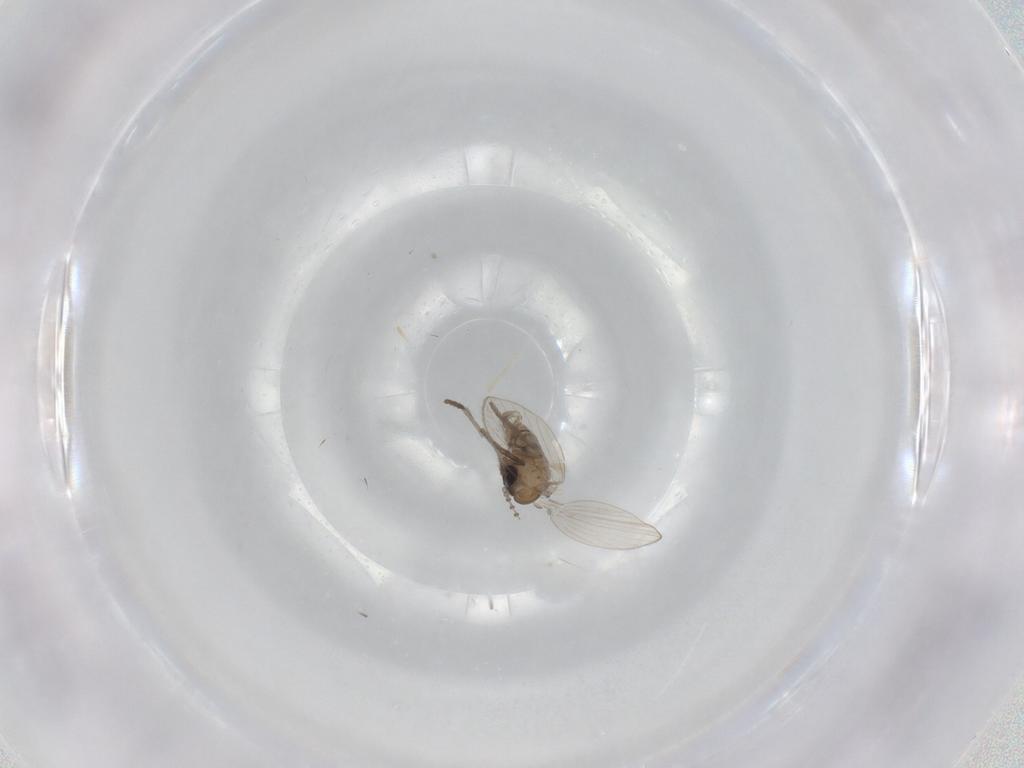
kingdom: Animalia
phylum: Arthropoda
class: Insecta
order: Diptera
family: Psychodidae
